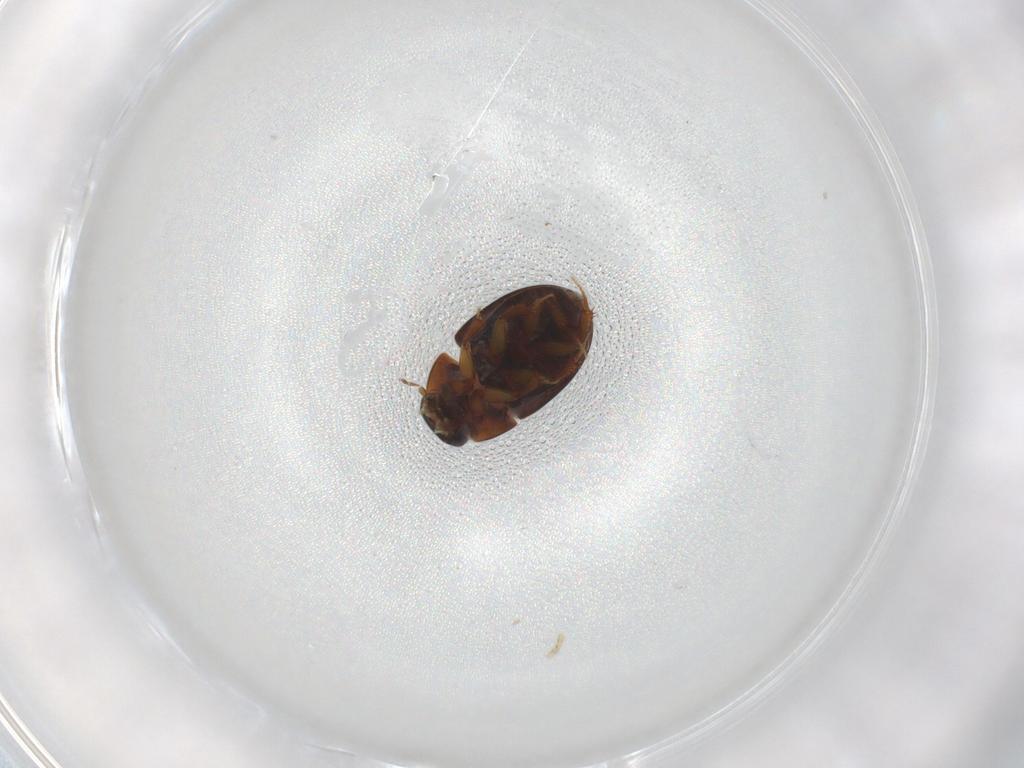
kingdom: Animalia
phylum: Arthropoda
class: Insecta
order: Coleoptera
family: Hydrophilidae
